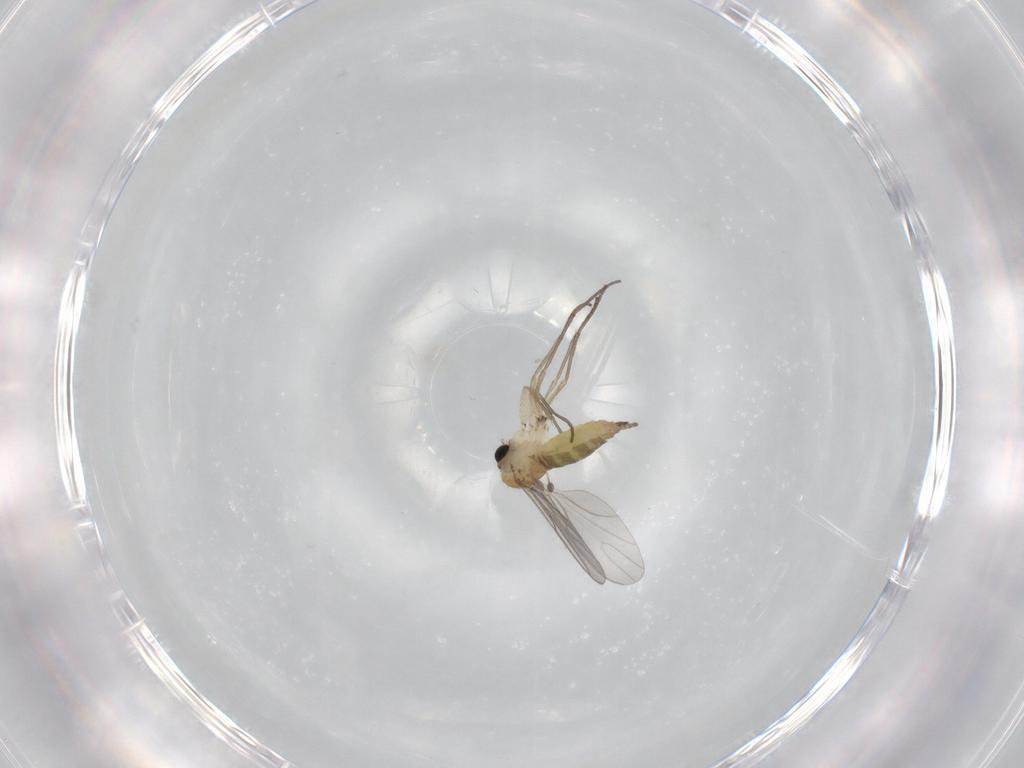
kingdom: Animalia
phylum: Arthropoda
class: Insecta
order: Diptera
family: Sciaridae
